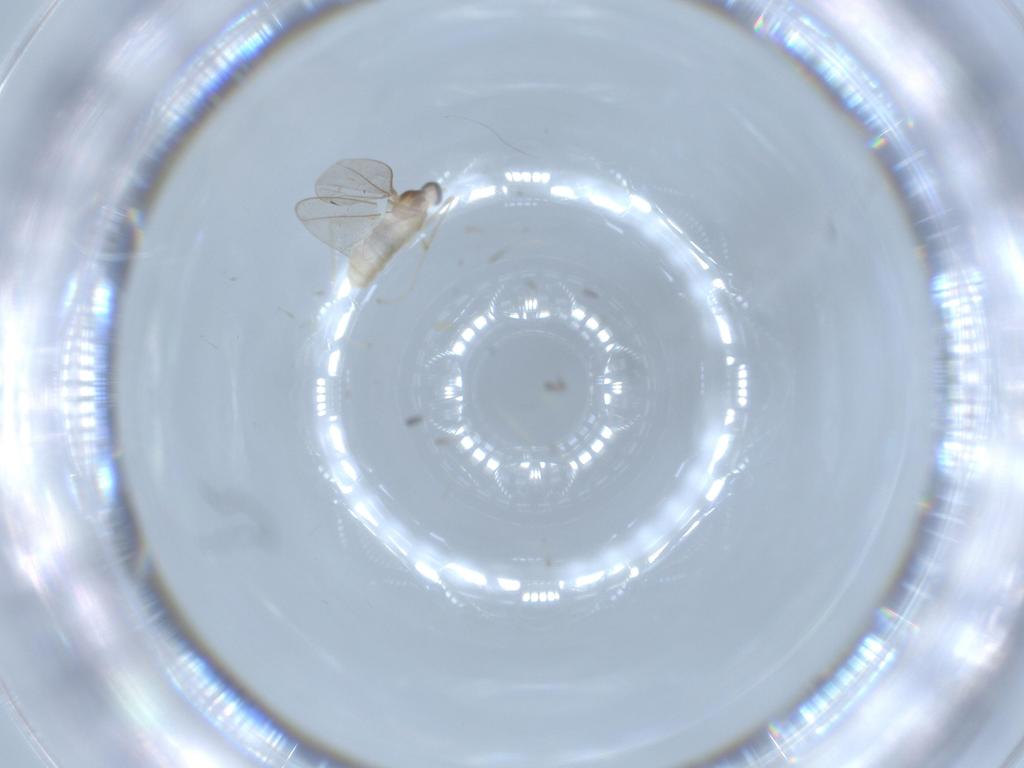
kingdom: Animalia
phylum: Arthropoda
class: Insecta
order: Diptera
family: Cecidomyiidae
